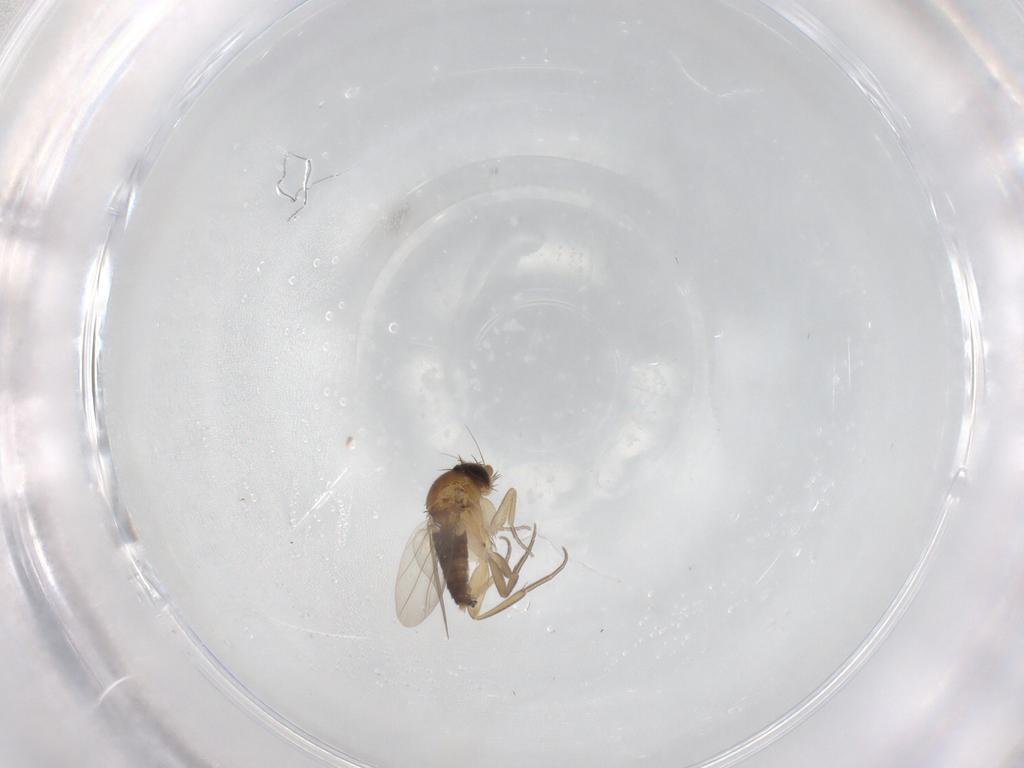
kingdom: Animalia
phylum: Arthropoda
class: Insecta
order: Diptera
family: Phoridae
